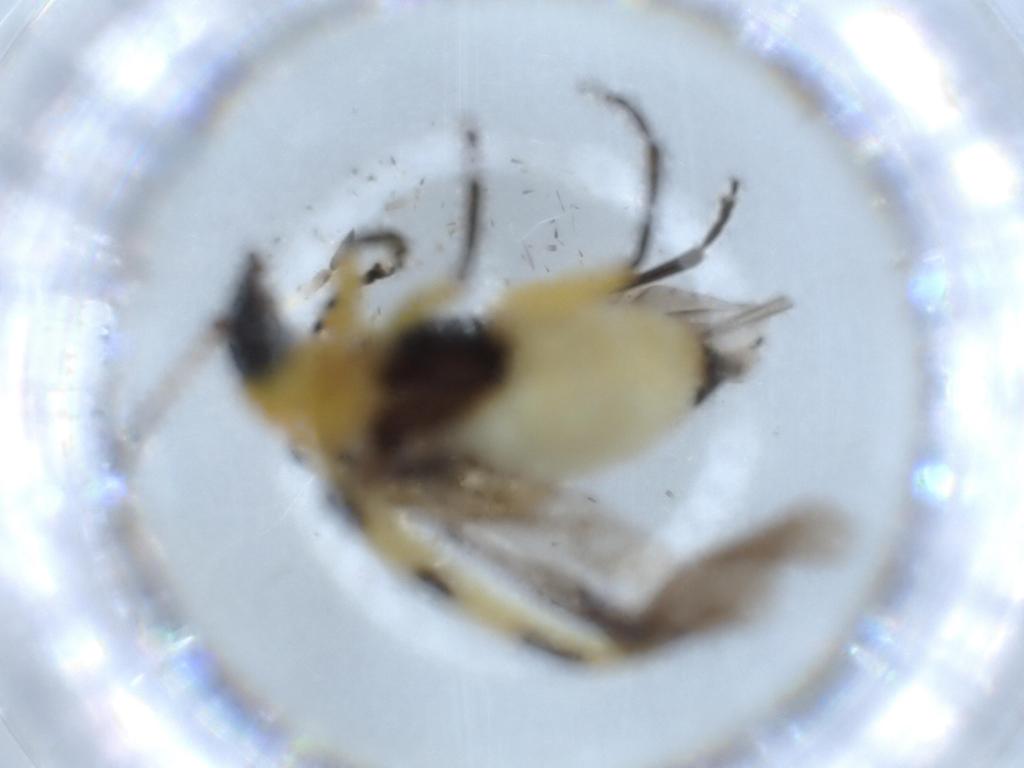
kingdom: Animalia
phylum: Arthropoda
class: Insecta
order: Coleoptera
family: Chrysomelidae
